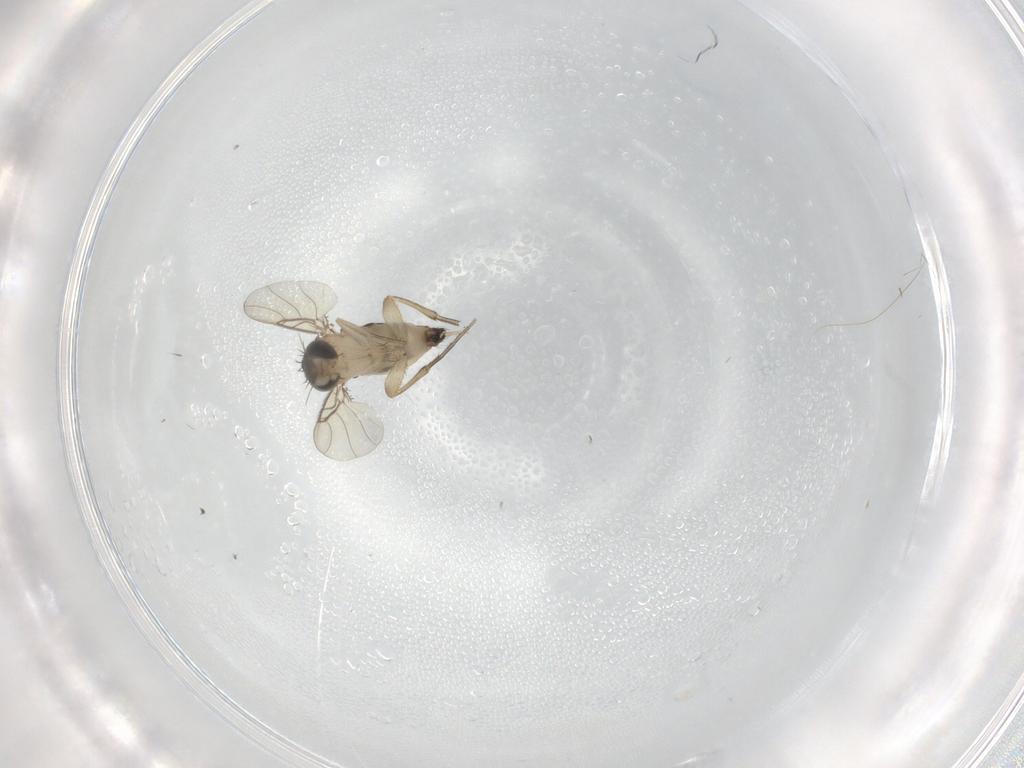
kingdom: Animalia
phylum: Arthropoda
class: Insecta
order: Diptera
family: Phoridae
